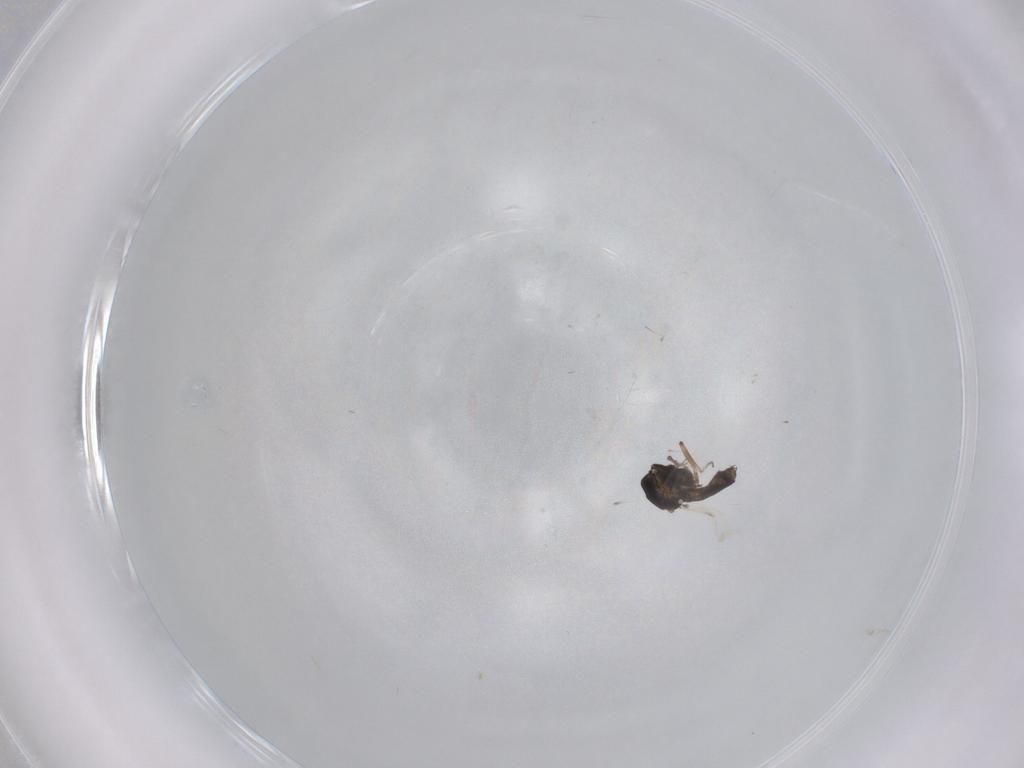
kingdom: Animalia
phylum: Arthropoda
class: Insecta
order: Diptera
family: Ceratopogonidae
